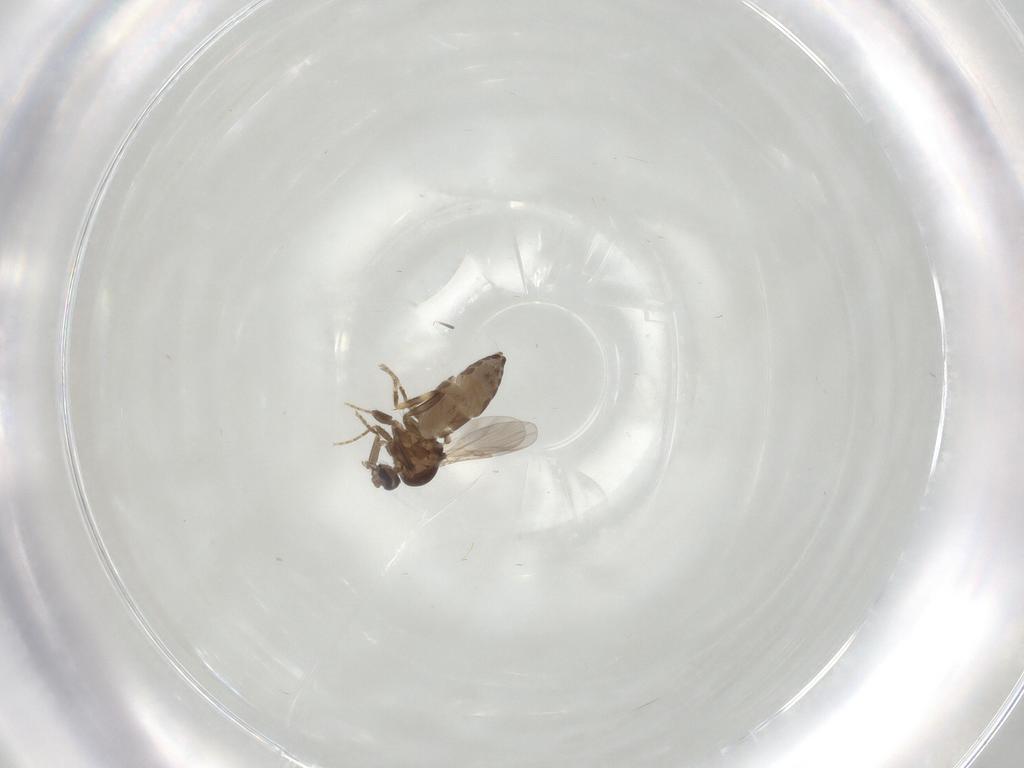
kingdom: Animalia
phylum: Arthropoda
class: Insecta
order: Diptera
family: Ceratopogonidae
